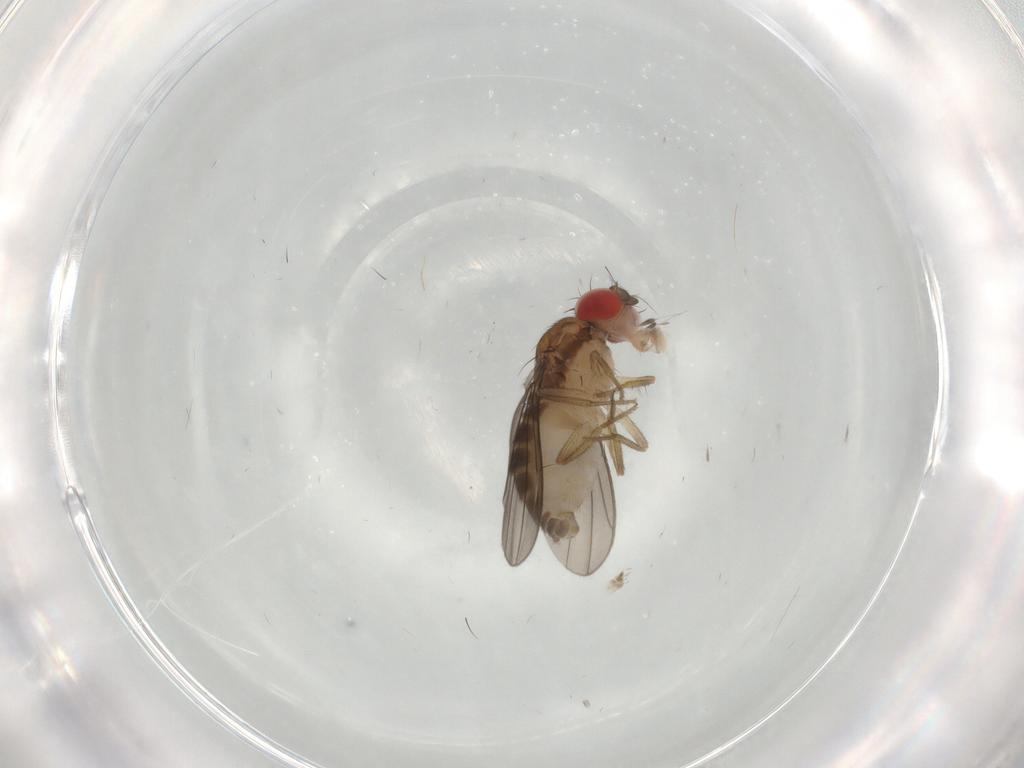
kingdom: Animalia
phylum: Arthropoda
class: Insecta
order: Diptera
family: Drosophilidae
